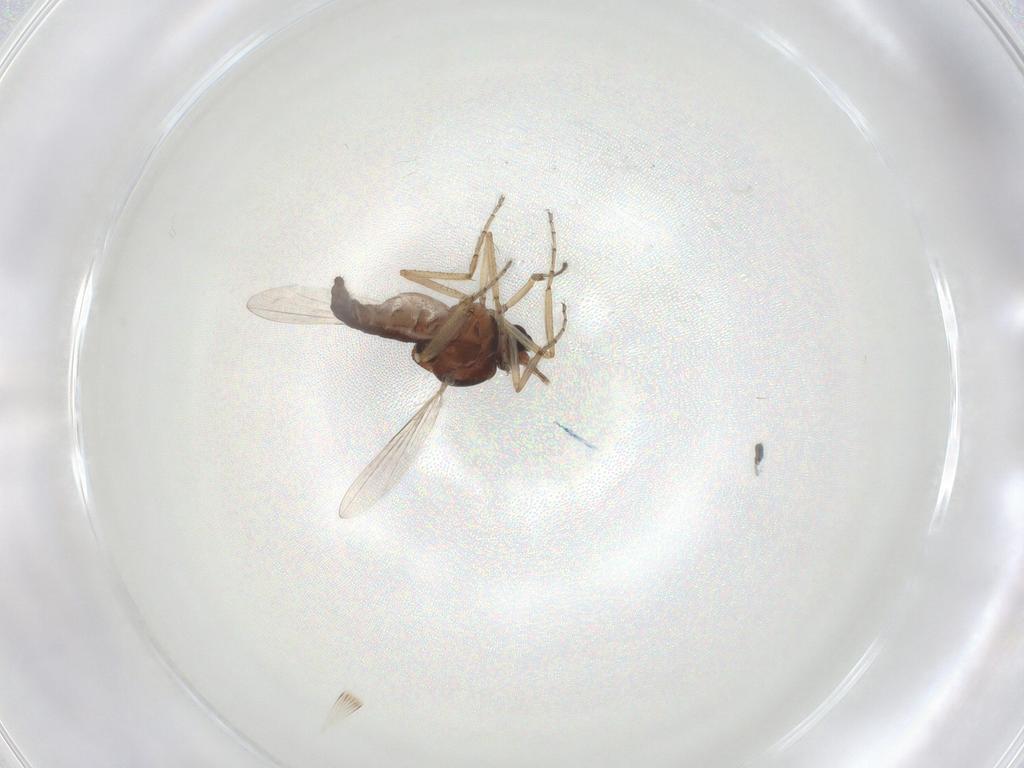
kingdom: Animalia
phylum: Arthropoda
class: Insecta
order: Diptera
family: Ceratopogonidae
